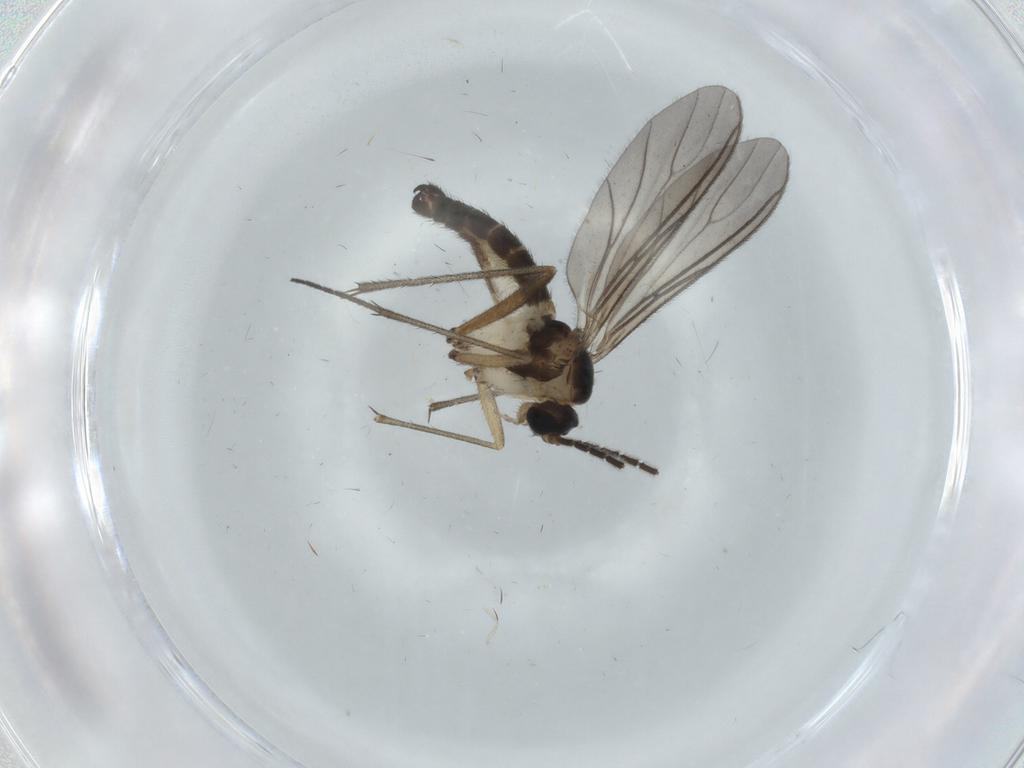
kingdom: Animalia
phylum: Arthropoda
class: Insecta
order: Diptera
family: Sciaridae
